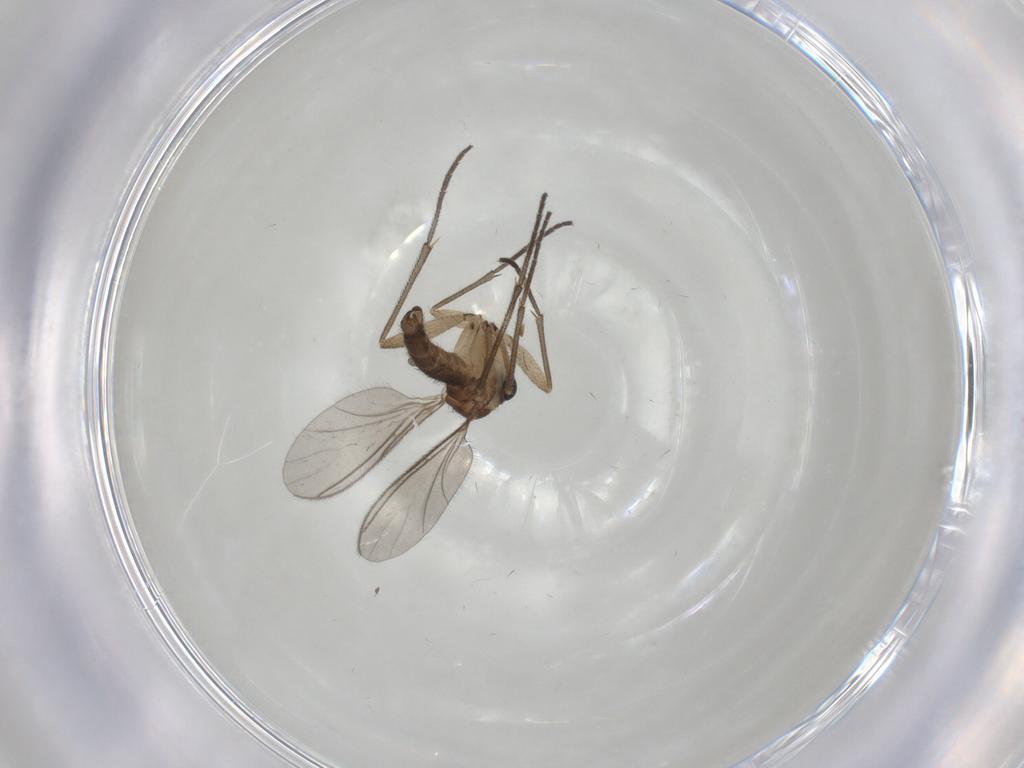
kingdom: Animalia
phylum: Arthropoda
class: Insecta
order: Diptera
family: Sciaridae
